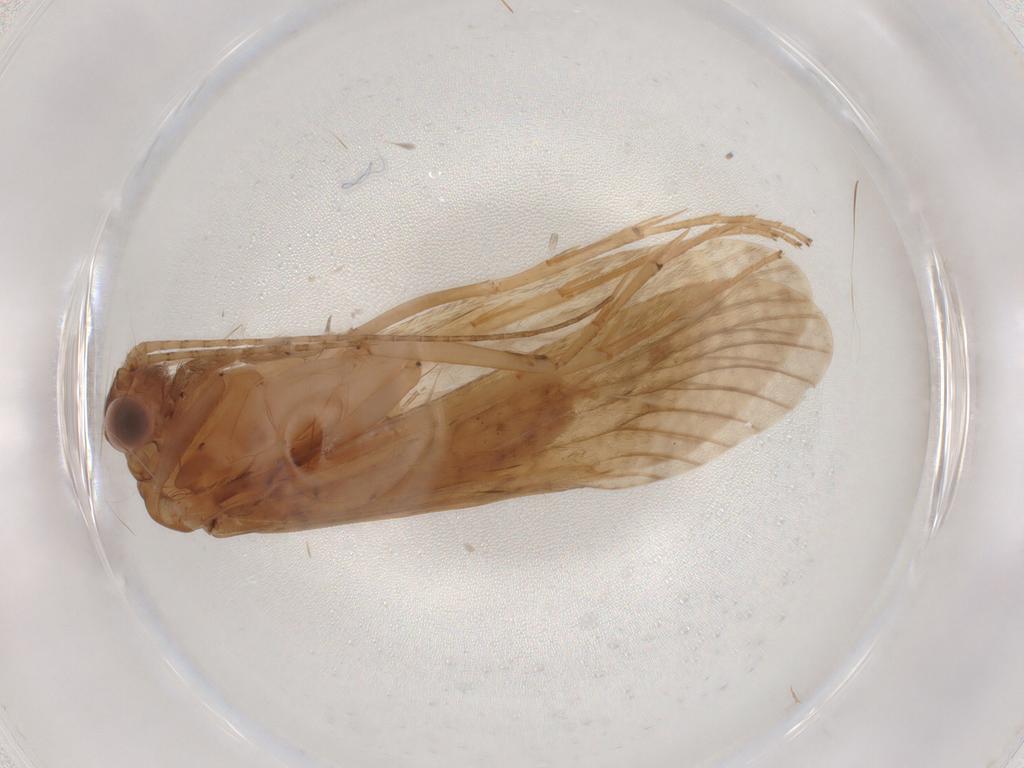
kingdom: Animalia
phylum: Arthropoda
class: Insecta
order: Trichoptera
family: Hydropsychidae
